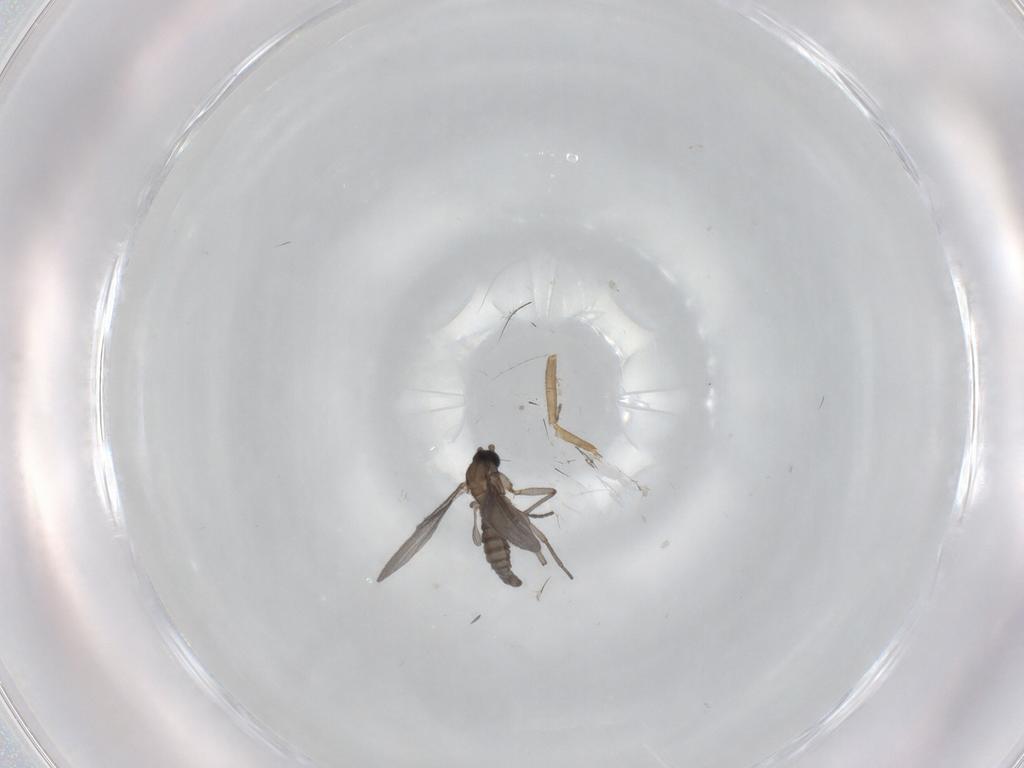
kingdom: Animalia
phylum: Arthropoda
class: Insecta
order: Diptera
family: Sciaridae
